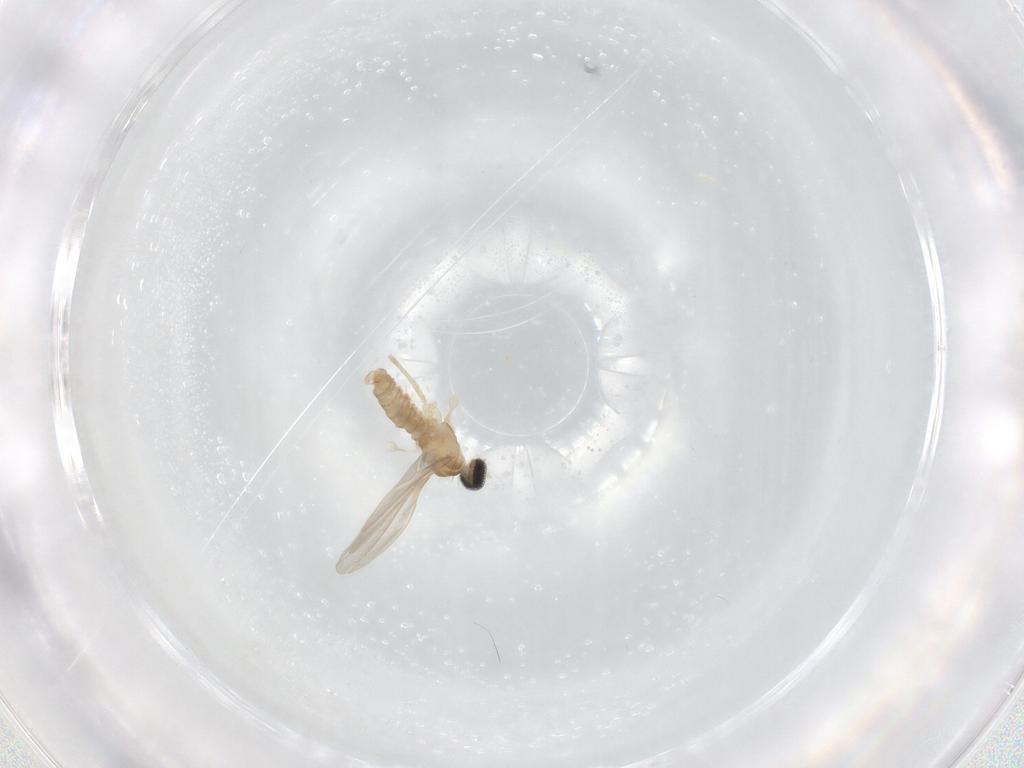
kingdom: Animalia
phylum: Arthropoda
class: Insecta
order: Diptera
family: Cecidomyiidae
